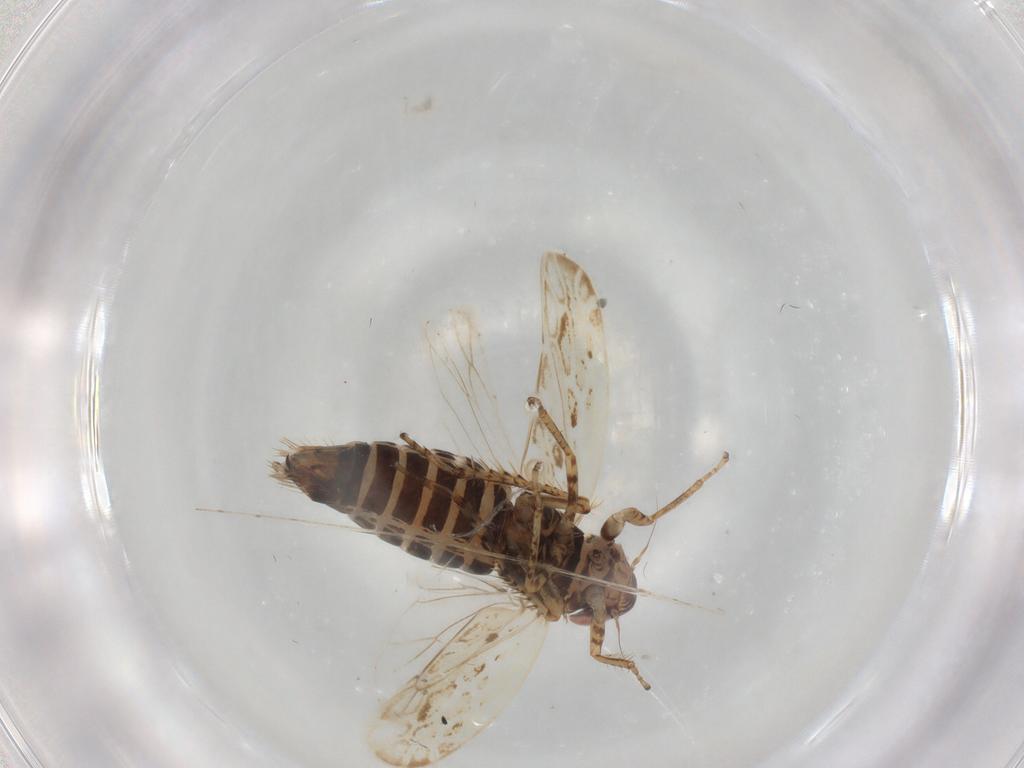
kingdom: Animalia
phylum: Arthropoda
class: Insecta
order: Hemiptera
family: Cicadellidae
